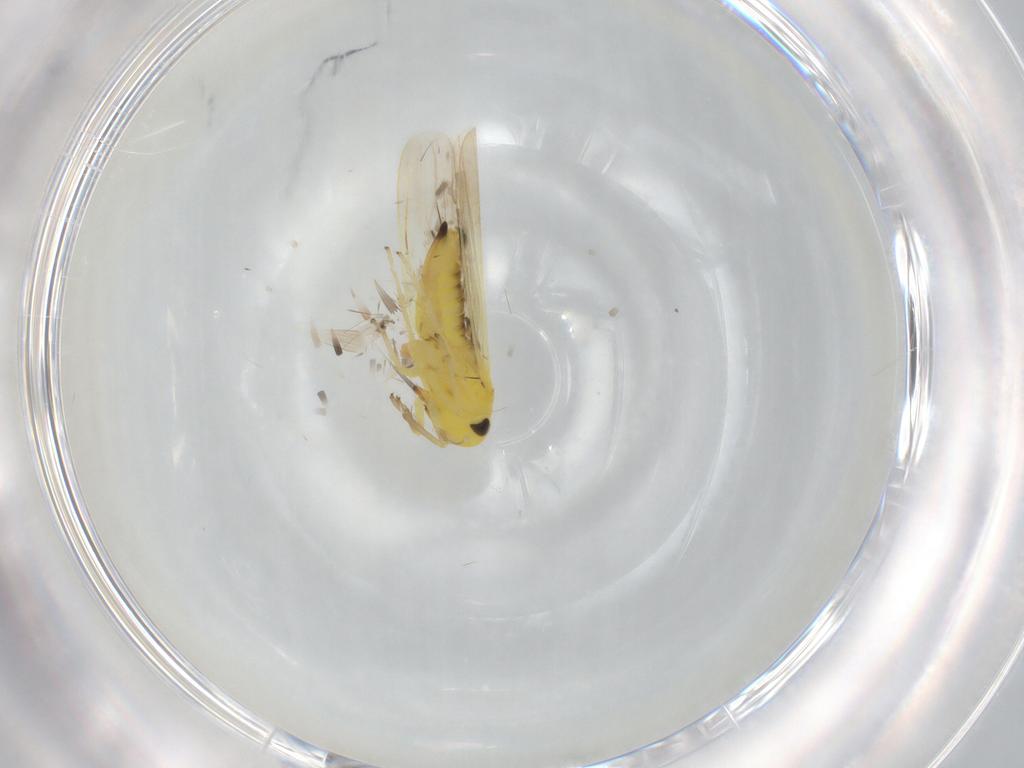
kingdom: Animalia
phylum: Arthropoda
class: Insecta
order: Hemiptera
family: Cicadellidae
